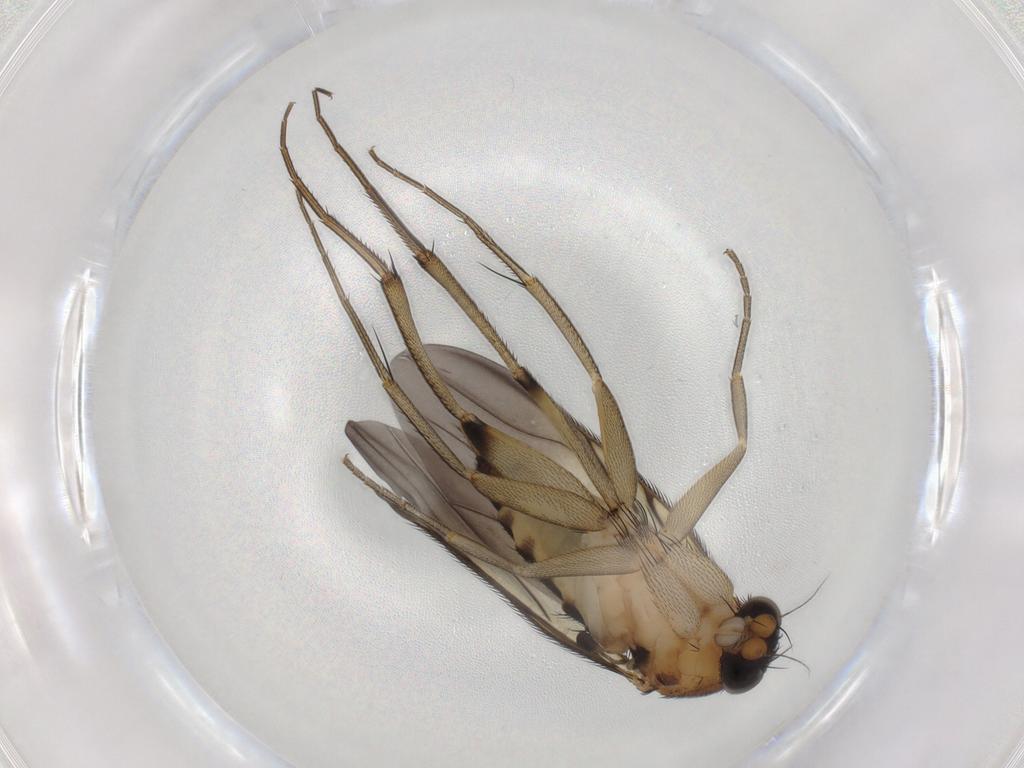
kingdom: Animalia
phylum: Arthropoda
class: Insecta
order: Diptera
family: Phoridae
